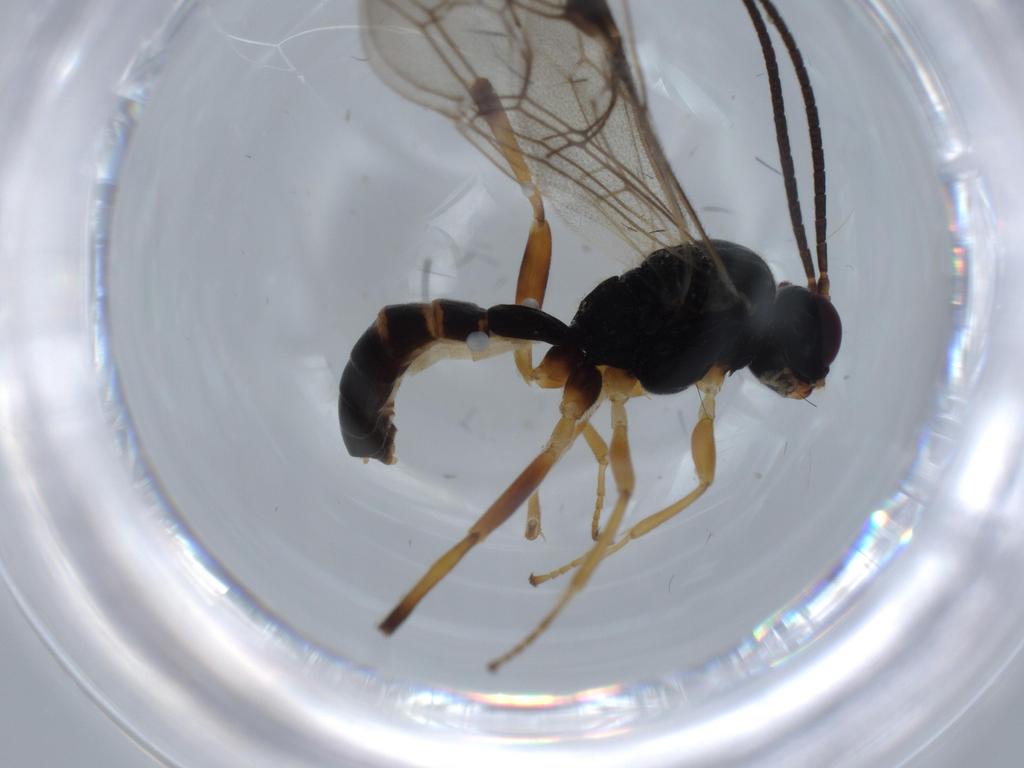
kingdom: Animalia
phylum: Arthropoda
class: Insecta
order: Hymenoptera
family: Ichneumonidae
